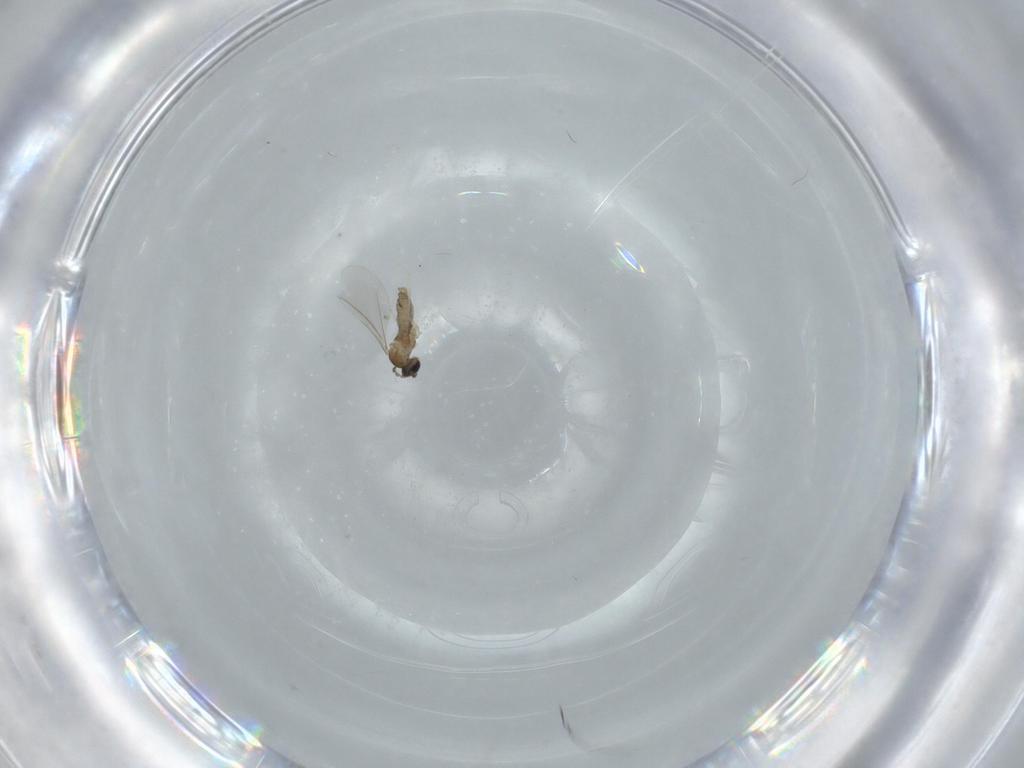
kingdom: Animalia
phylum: Arthropoda
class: Insecta
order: Diptera
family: Cecidomyiidae
